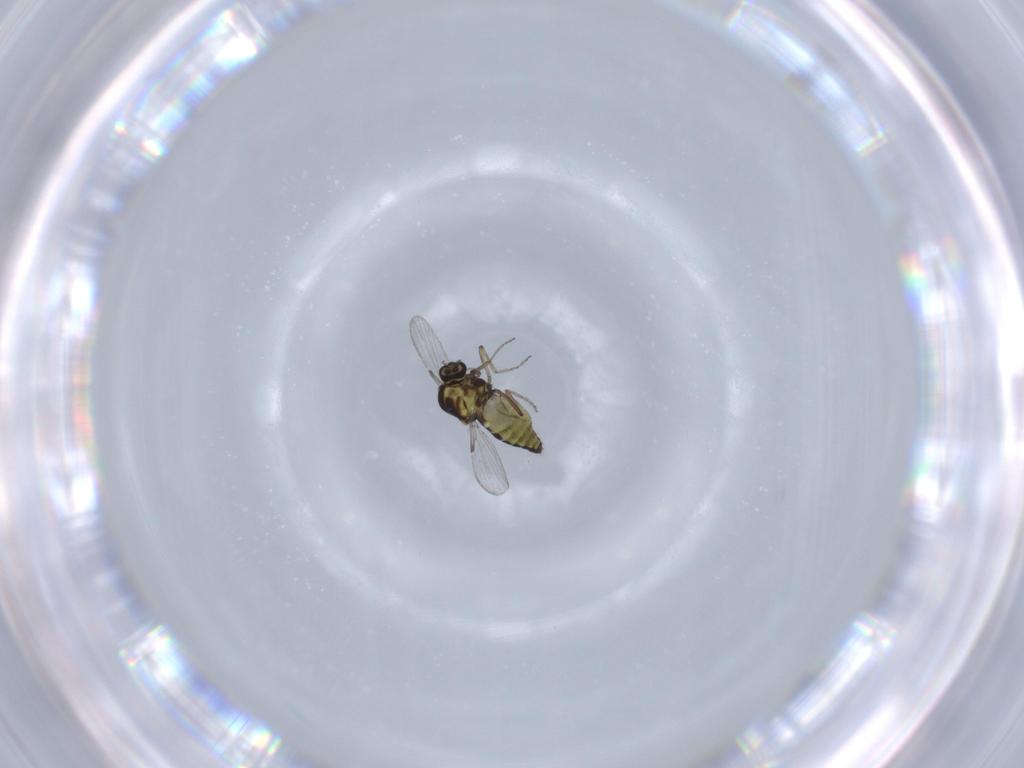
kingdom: Animalia
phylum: Arthropoda
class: Insecta
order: Diptera
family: Ceratopogonidae
